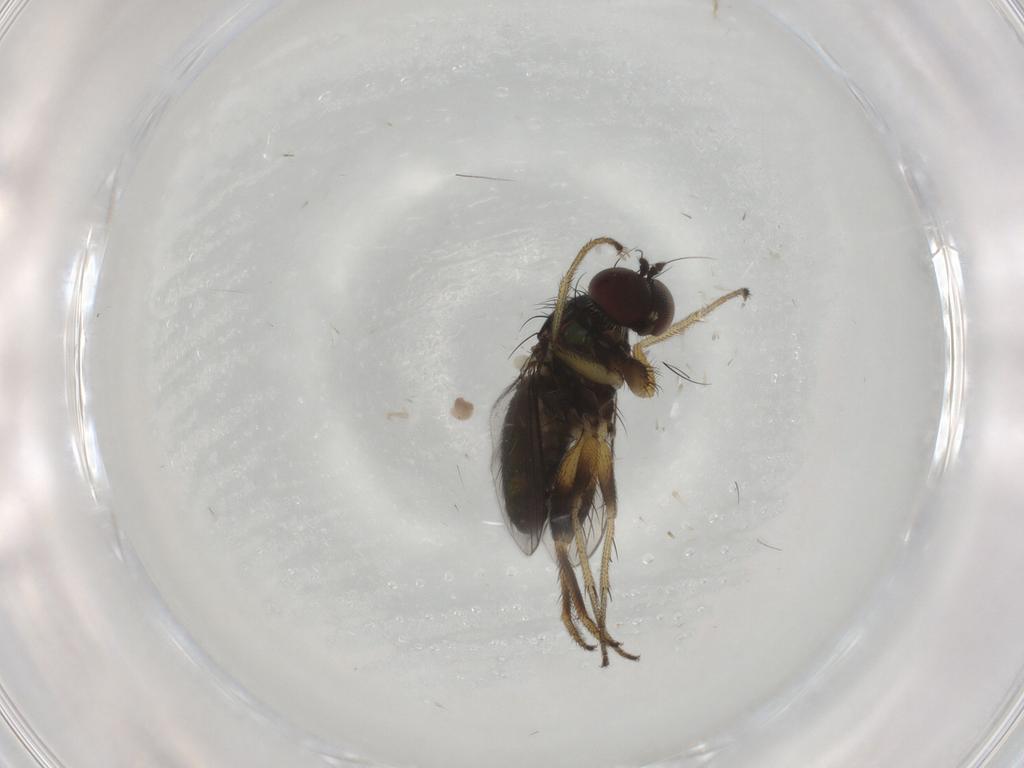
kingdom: Animalia
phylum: Arthropoda
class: Insecta
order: Diptera
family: Dolichopodidae
